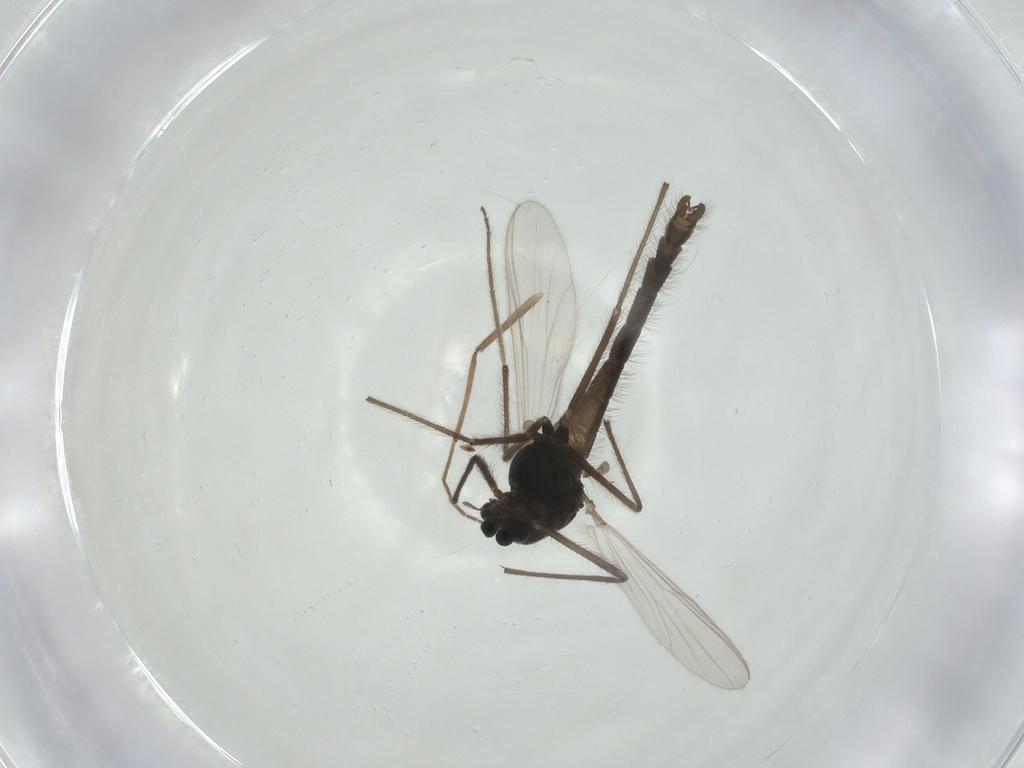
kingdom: Animalia
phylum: Arthropoda
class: Insecta
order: Diptera
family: Chironomidae
